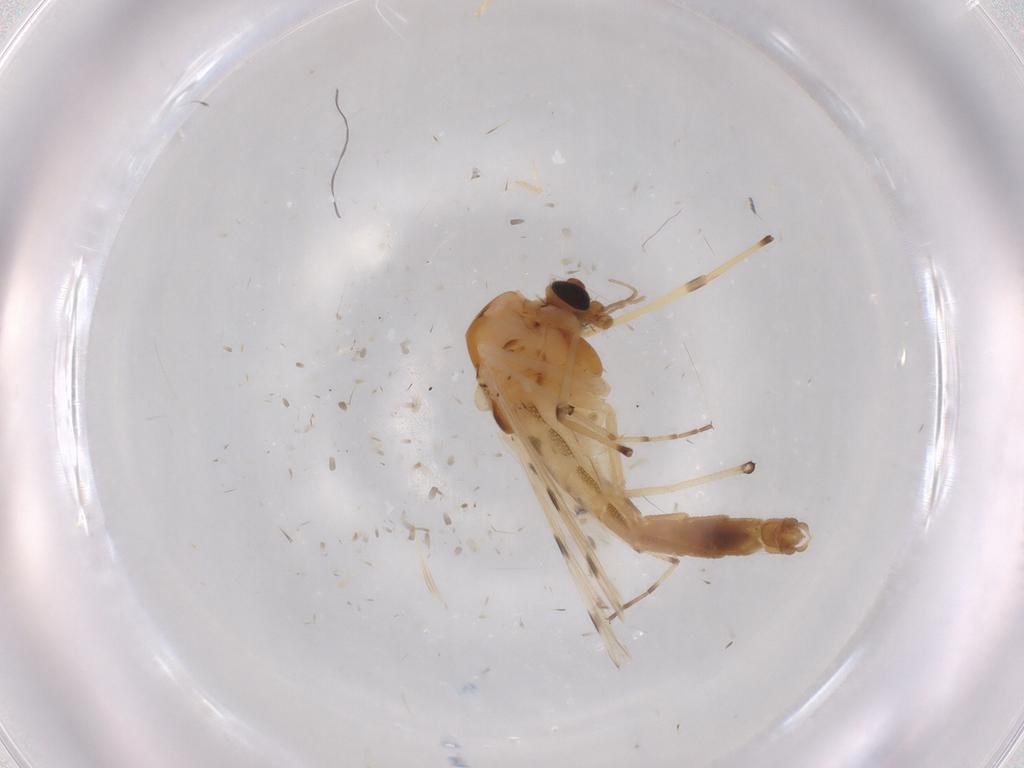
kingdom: Animalia
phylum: Arthropoda
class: Insecta
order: Diptera
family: Chironomidae
